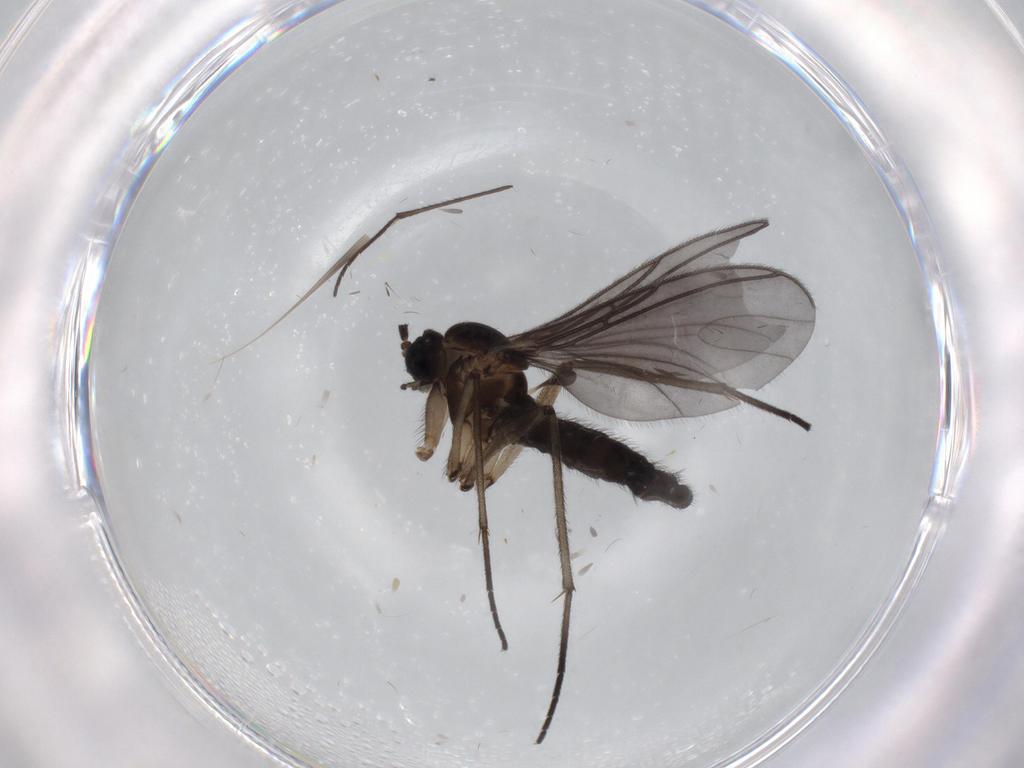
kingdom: Animalia
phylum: Arthropoda
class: Insecta
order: Diptera
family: Sciaridae
